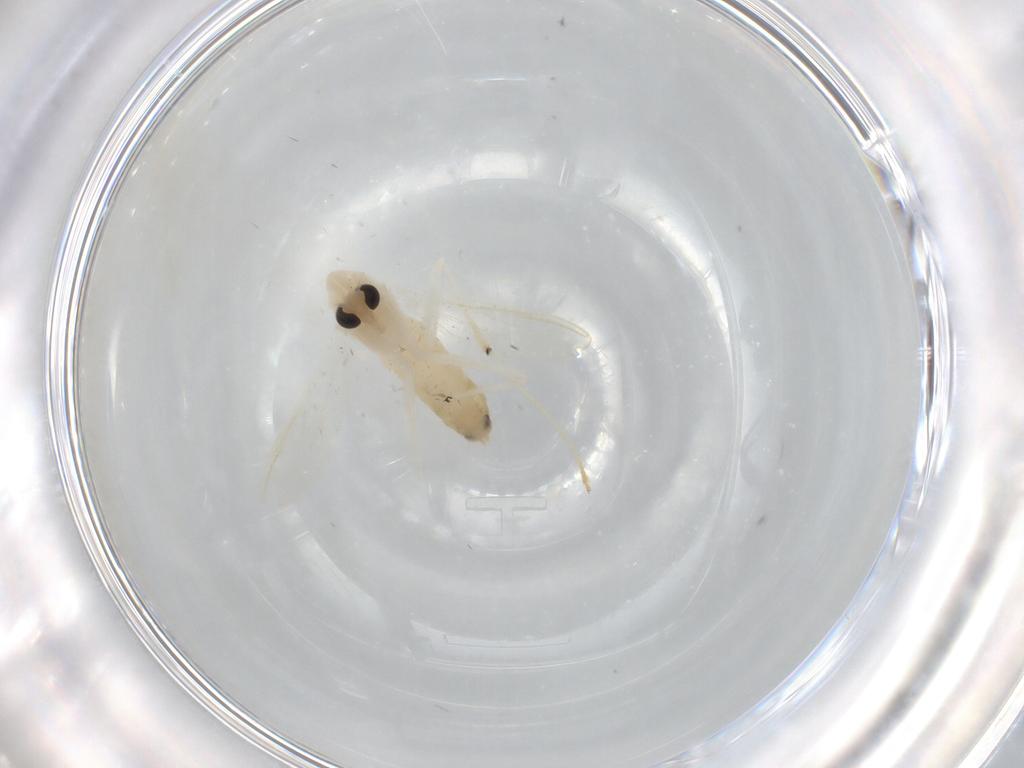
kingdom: Animalia
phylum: Arthropoda
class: Insecta
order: Diptera
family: Chironomidae
